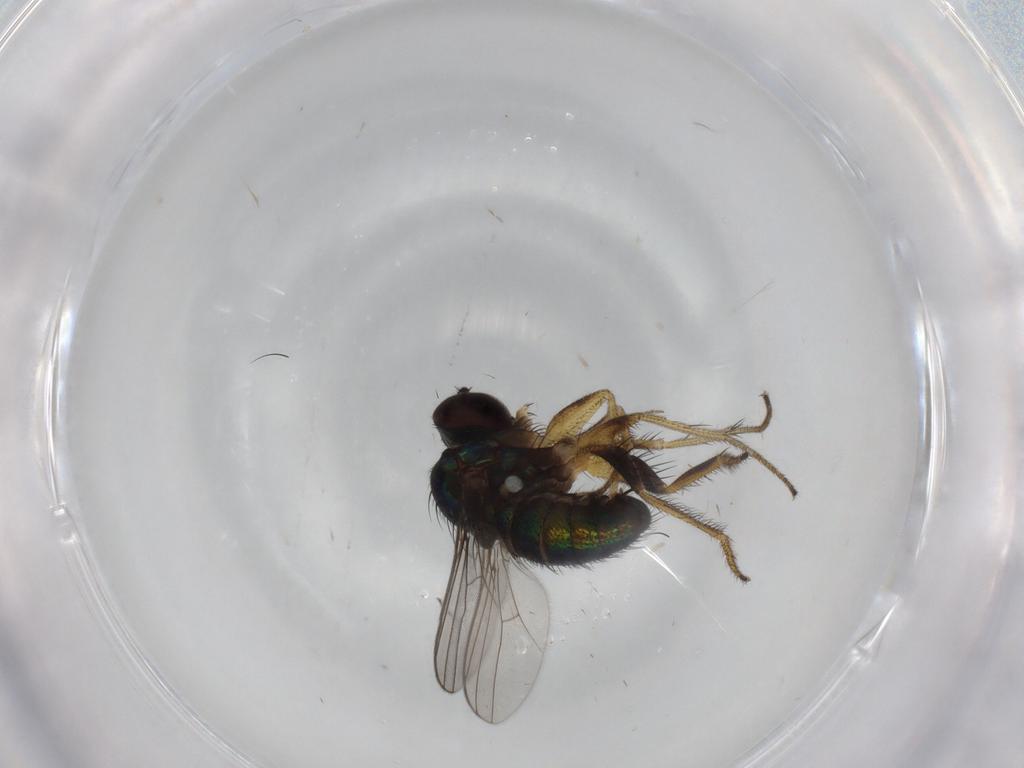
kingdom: Animalia
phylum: Arthropoda
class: Insecta
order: Diptera
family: Dolichopodidae
